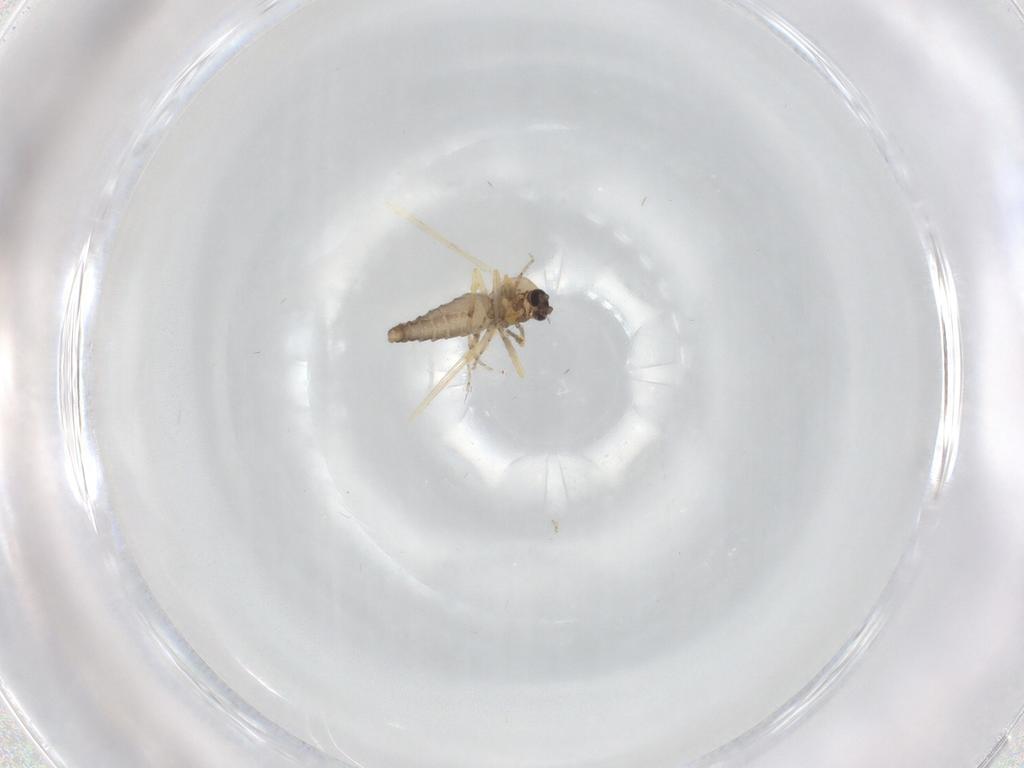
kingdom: Animalia
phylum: Arthropoda
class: Insecta
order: Diptera
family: Ceratopogonidae
